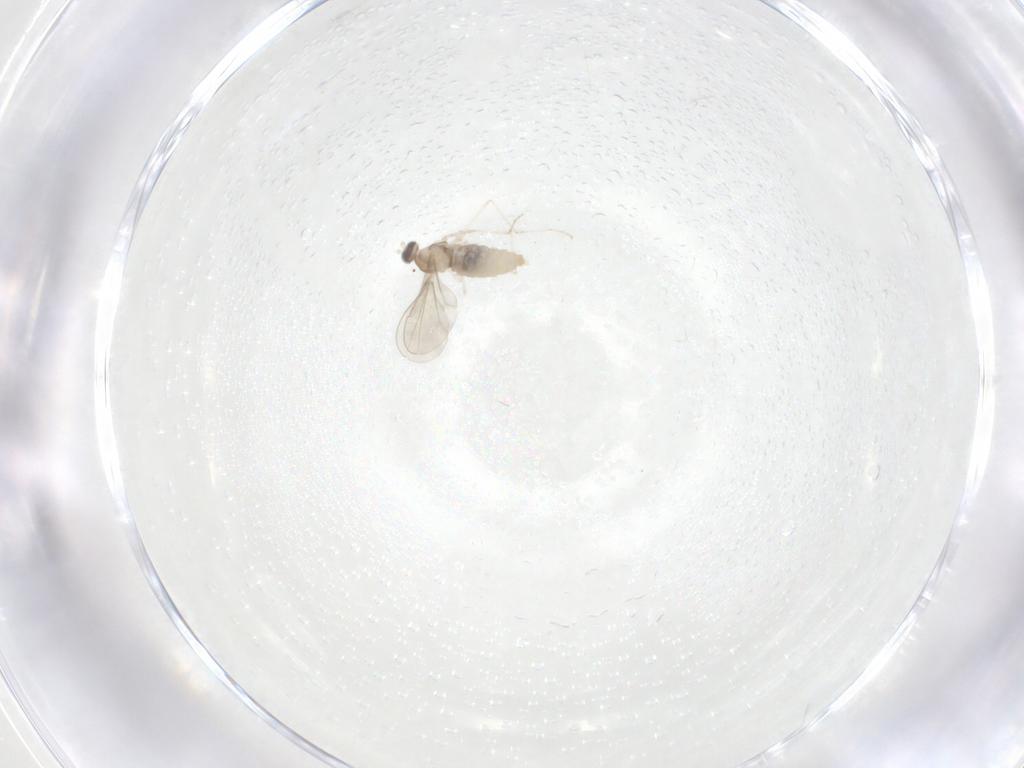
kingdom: Animalia
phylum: Arthropoda
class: Insecta
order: Diptera
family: Cecidomyiidae
